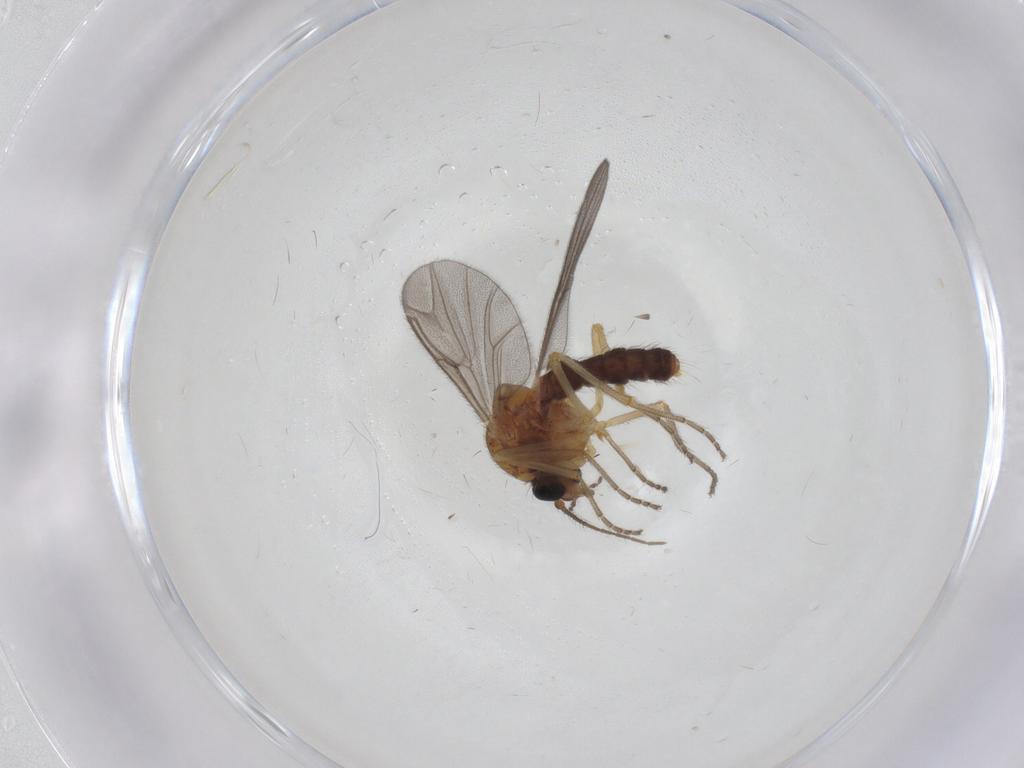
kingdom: Animalia
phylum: Arthropoda
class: Insecta
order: Diptera
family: Ceratopogonidae
